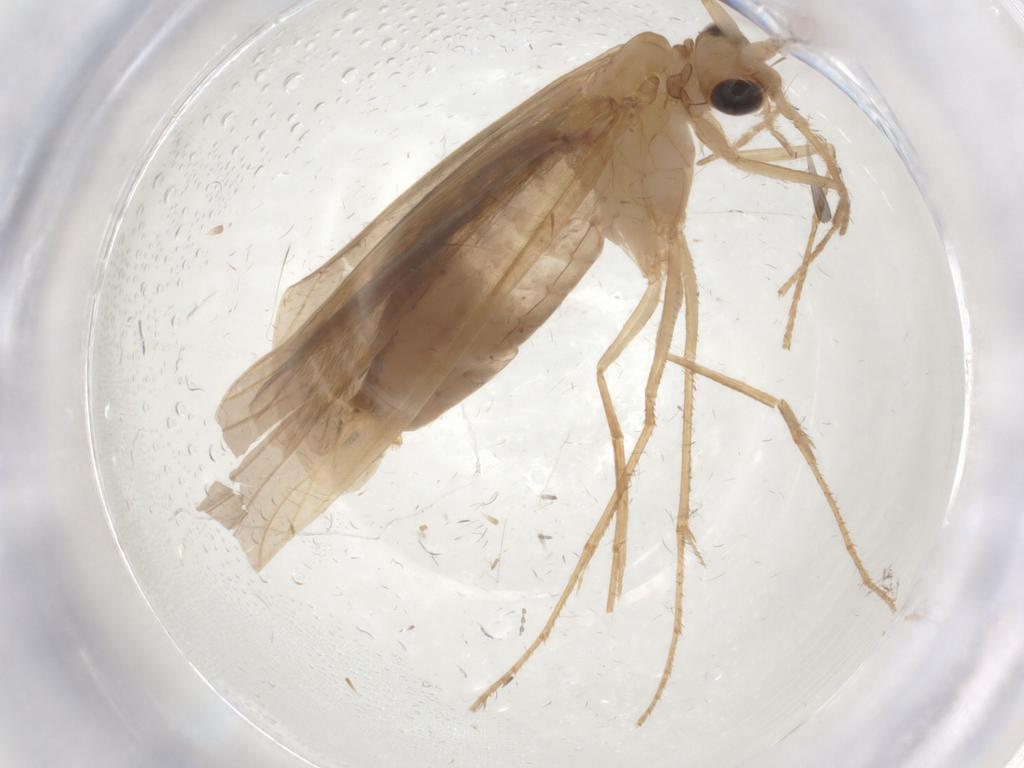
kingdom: Animalia
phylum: Arthropoda
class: Insecta
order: Trichoptera
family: Leptoceridae
